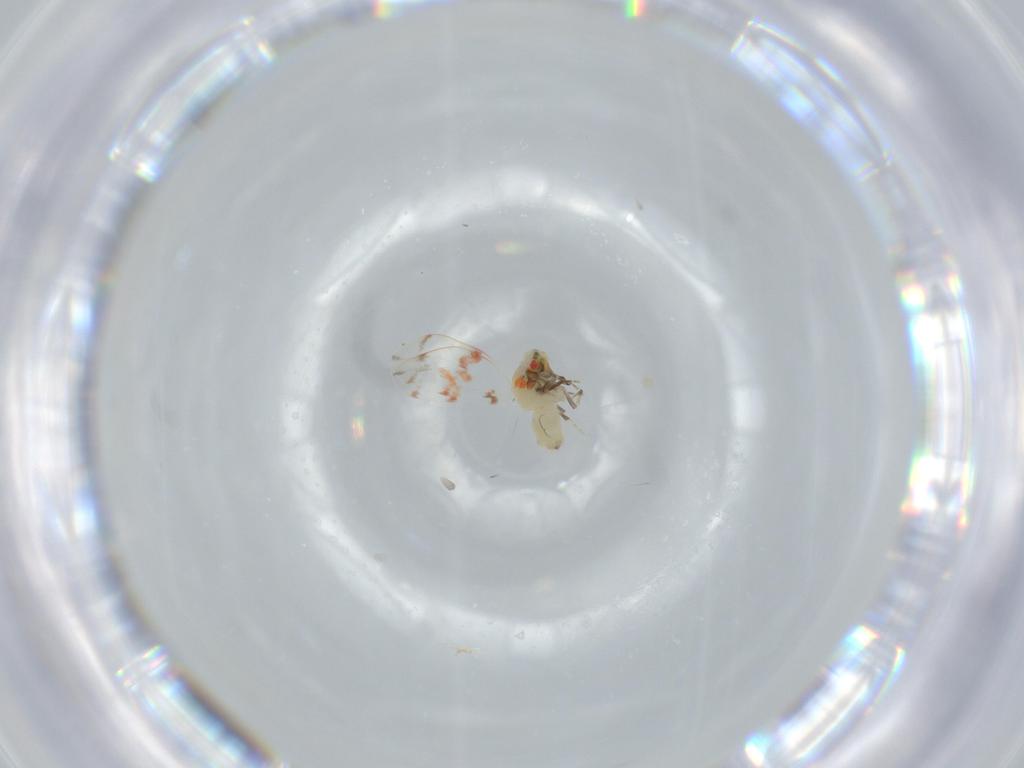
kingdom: Animalia
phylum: Arthropoda
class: Insecta
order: Hemiptera
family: Aleyrodidae
